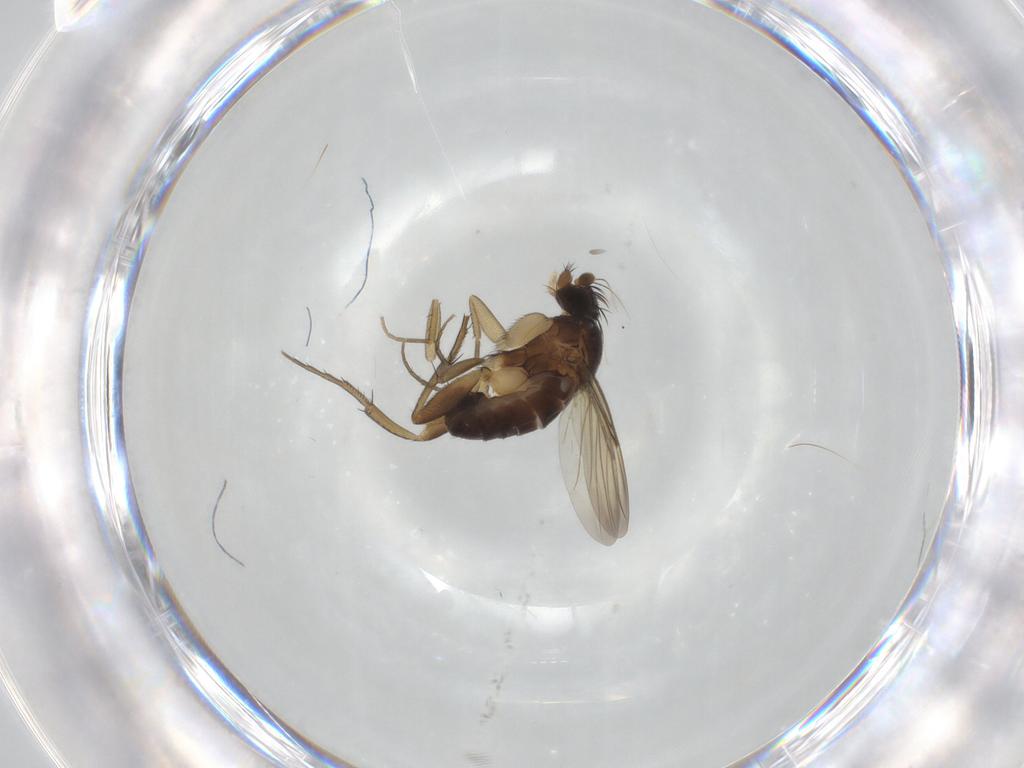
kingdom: Animalia
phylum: Arthropoda
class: Insecta
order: Diptera
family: Phoridae
